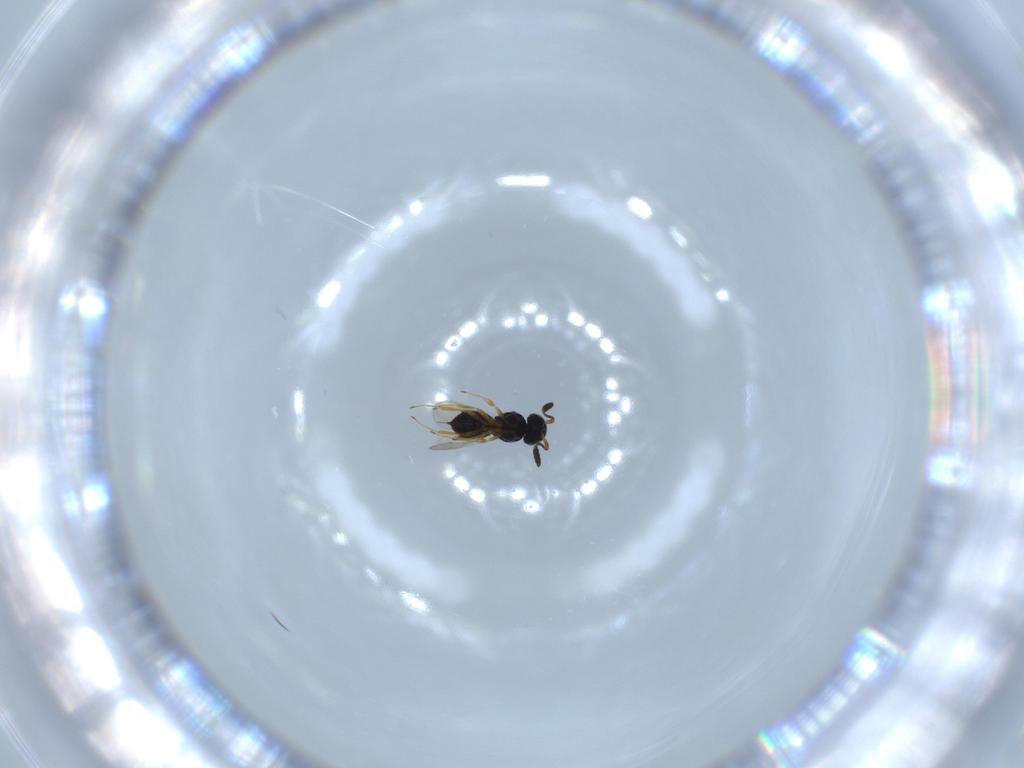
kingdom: Animalia
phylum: Arthropoda
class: Insecta
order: Hymenoptera
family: Scelionidae
